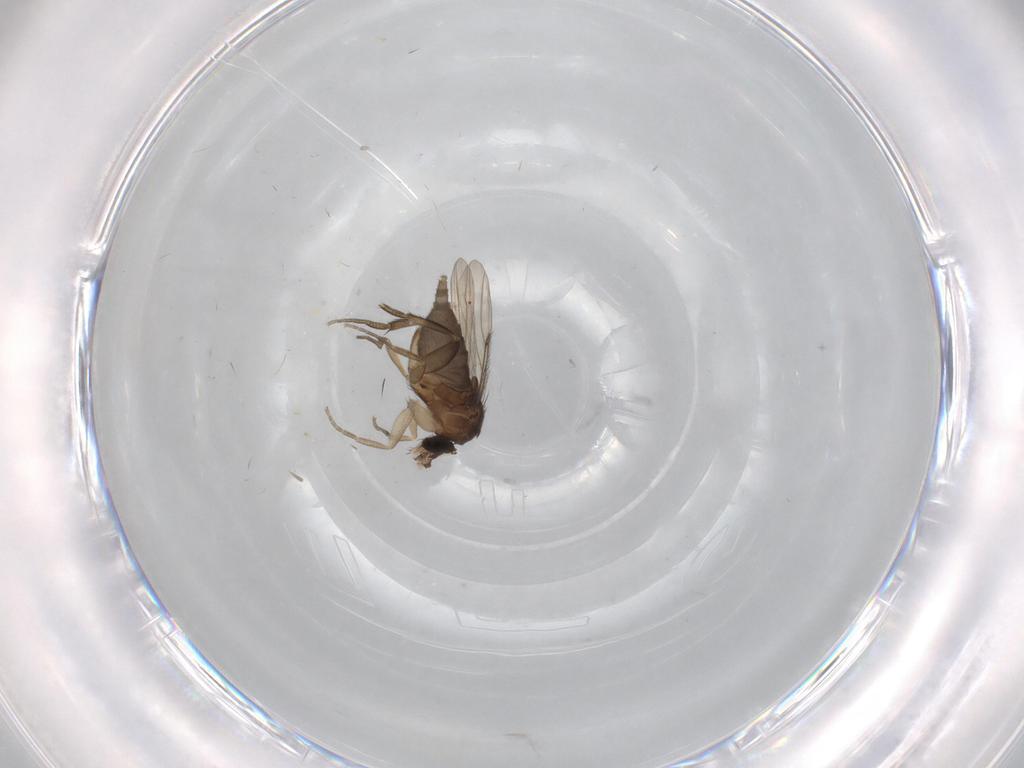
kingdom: Animalia
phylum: Arthropoda
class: Insecta
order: Diptera
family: Phoridae
